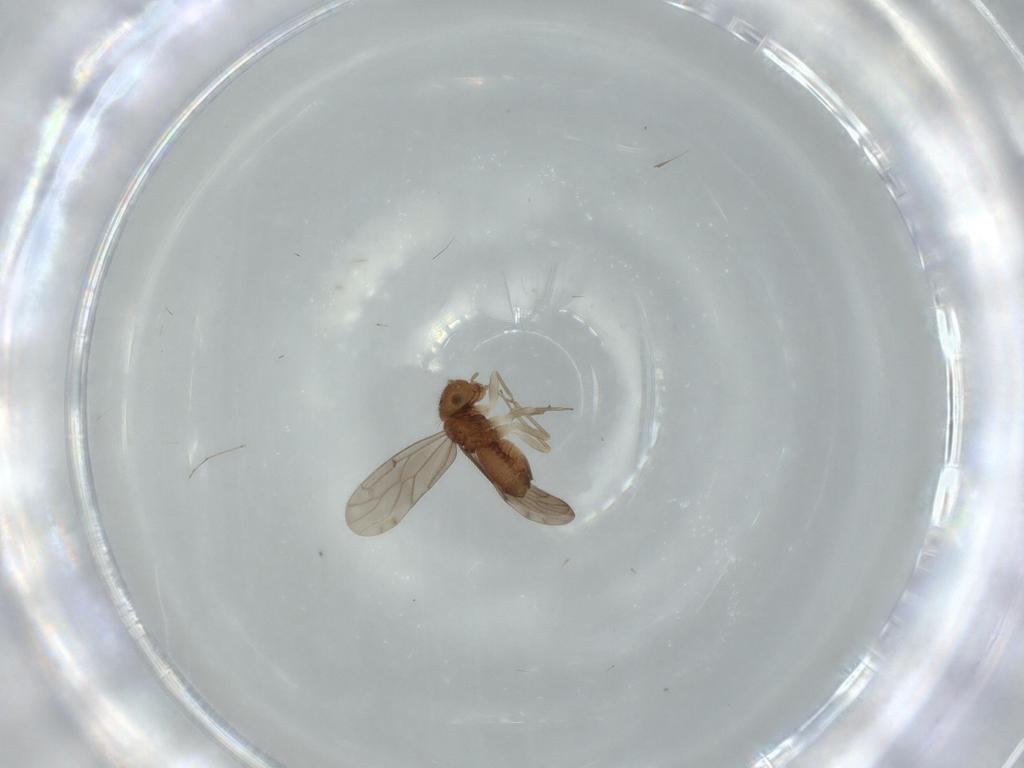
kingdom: Animalia
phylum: Arthropoda
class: Insecta
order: Psocodea
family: Ectopsocidae
